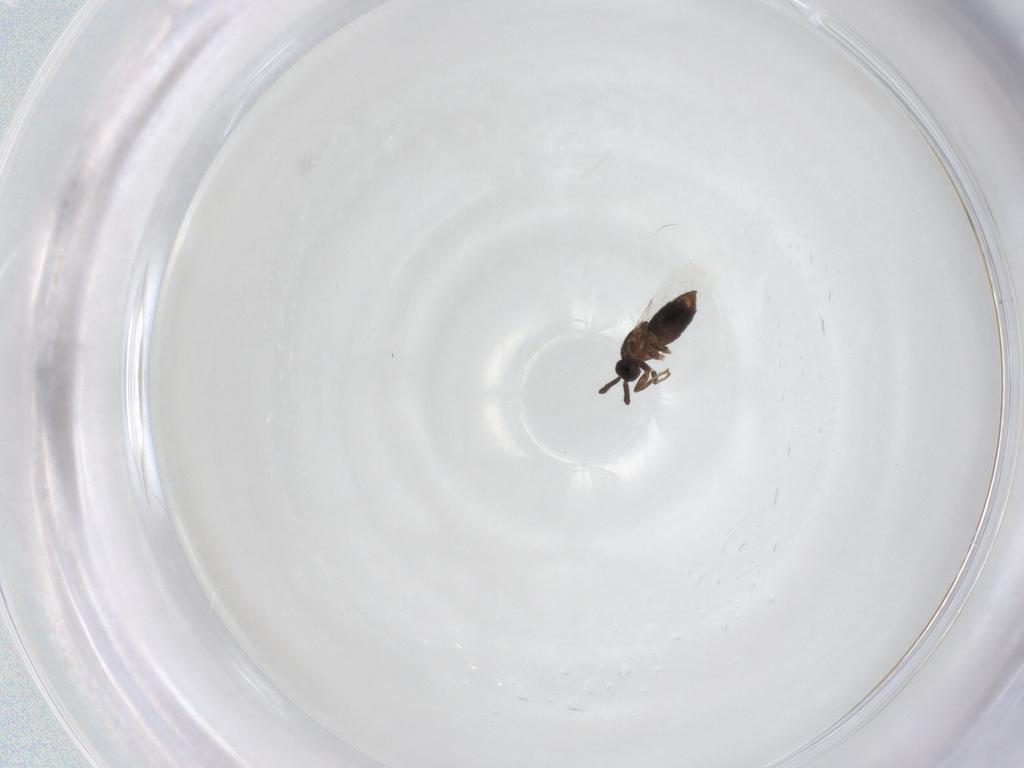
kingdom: Animalia
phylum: Arthropoda
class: Insecta
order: Diptera
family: Scatopsidae
